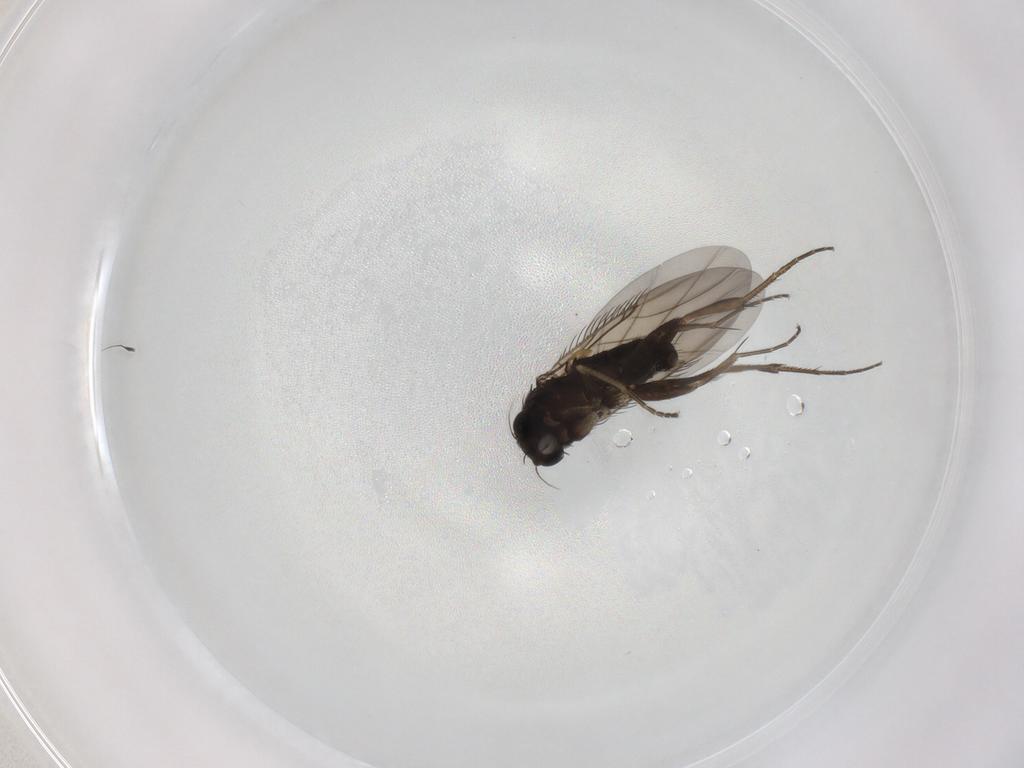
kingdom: Animalia
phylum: Arthropoda
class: Insecta
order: Diptera
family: Phoridae
